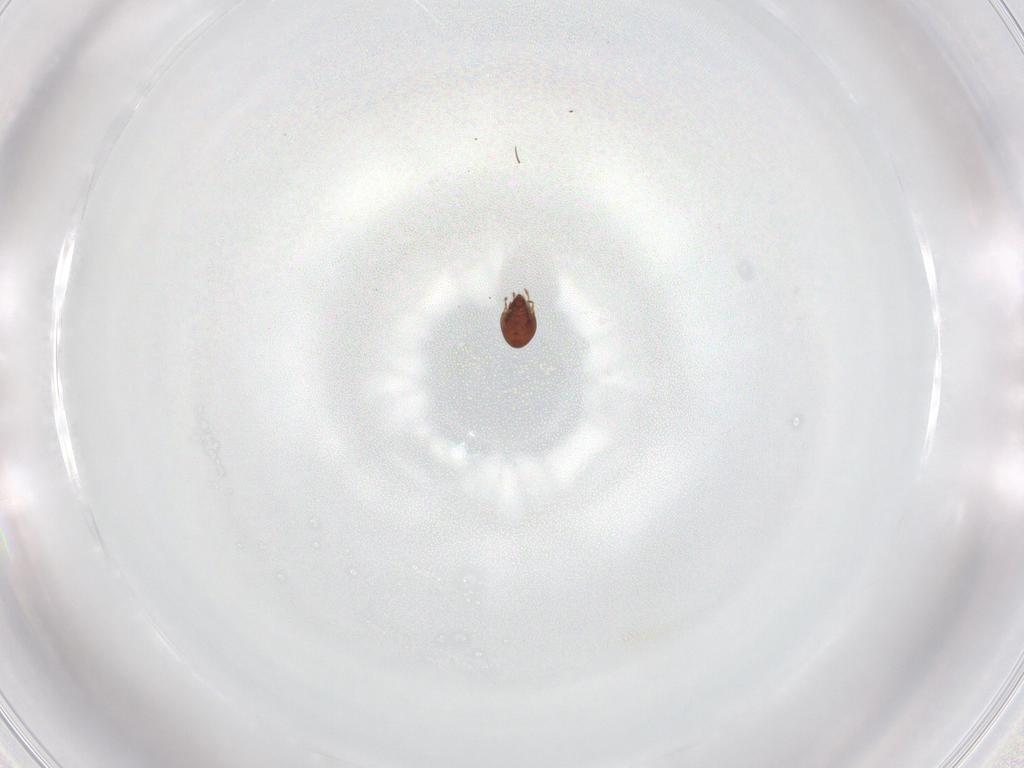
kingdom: Animalia
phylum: Arthropoda
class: Arachnida
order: Sarcoptiformes
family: Ceratozetidae
